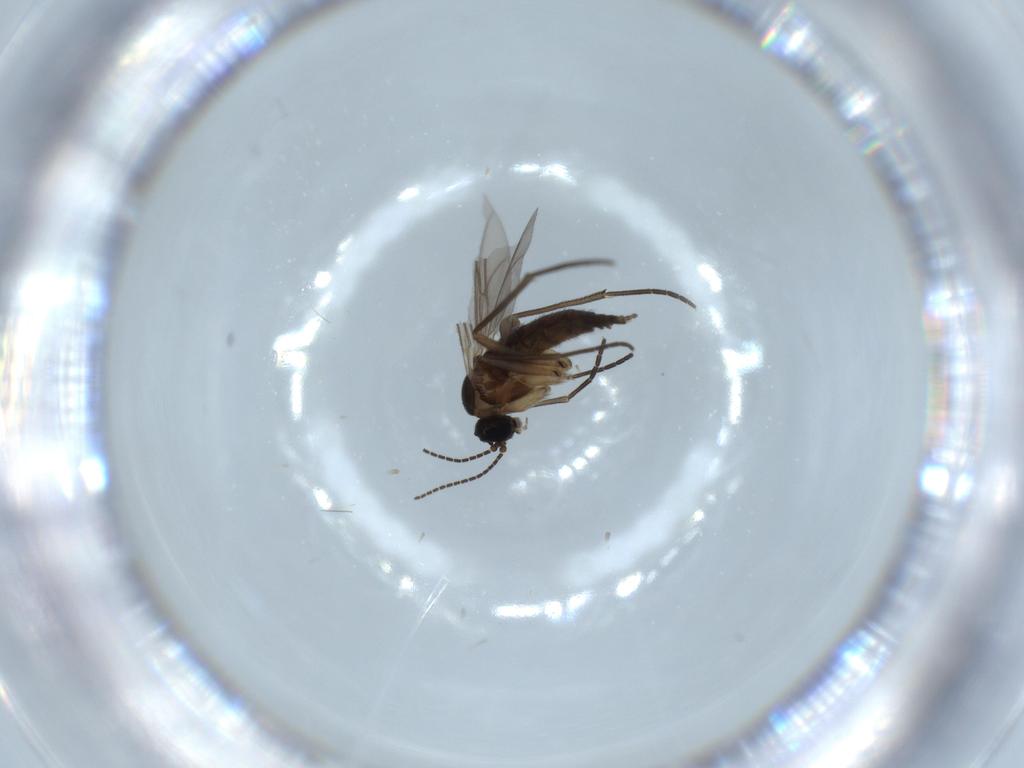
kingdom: Animalia
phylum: Arthropoda
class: Insecta
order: Diptera
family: Sciaridae
